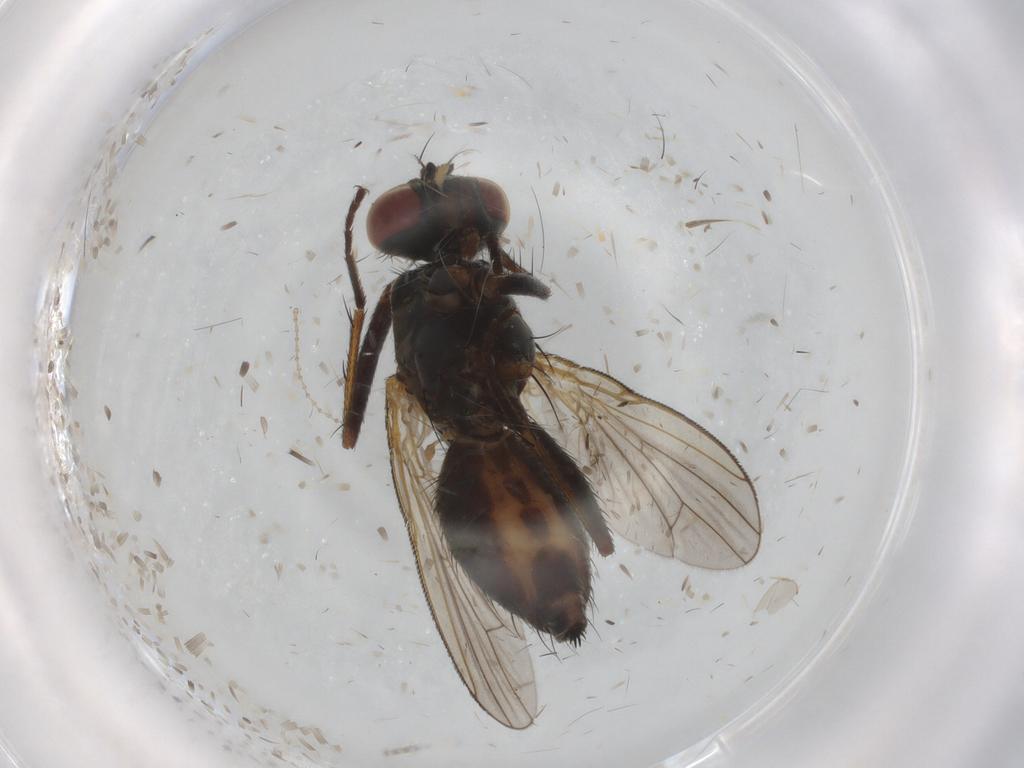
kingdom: Animalia
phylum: Arthropoda
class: Insecta
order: Diptera
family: Muscidae
